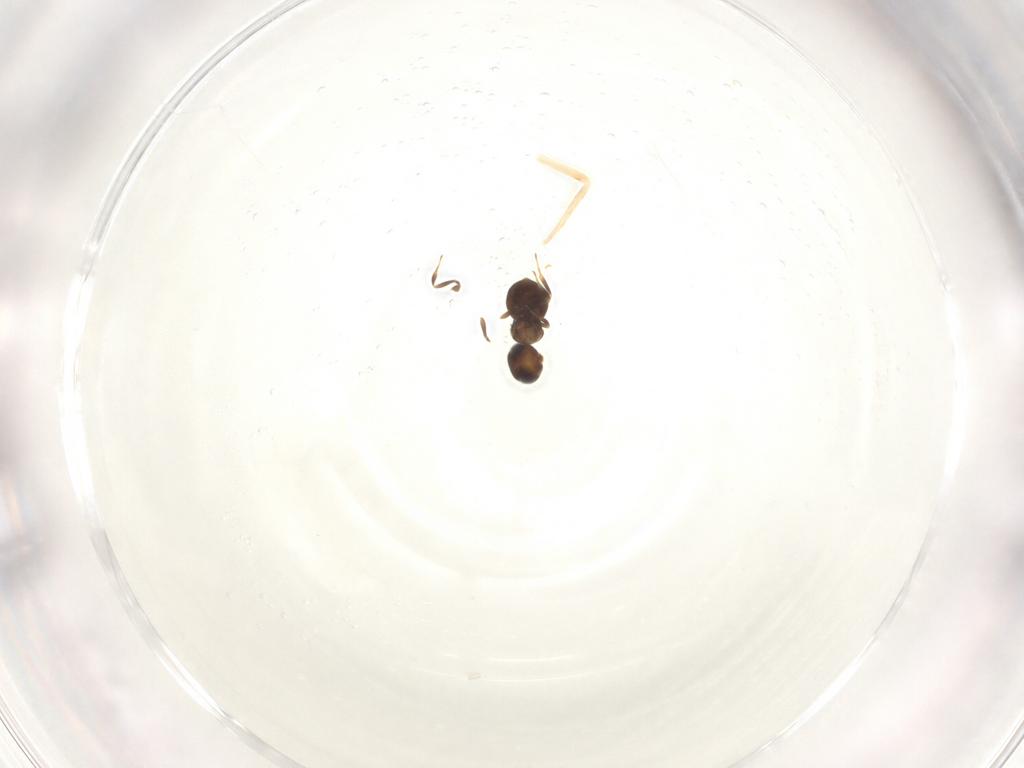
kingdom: Animalia
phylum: Arthropoda
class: Insecta
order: Hymenoptera
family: Scelionidae
